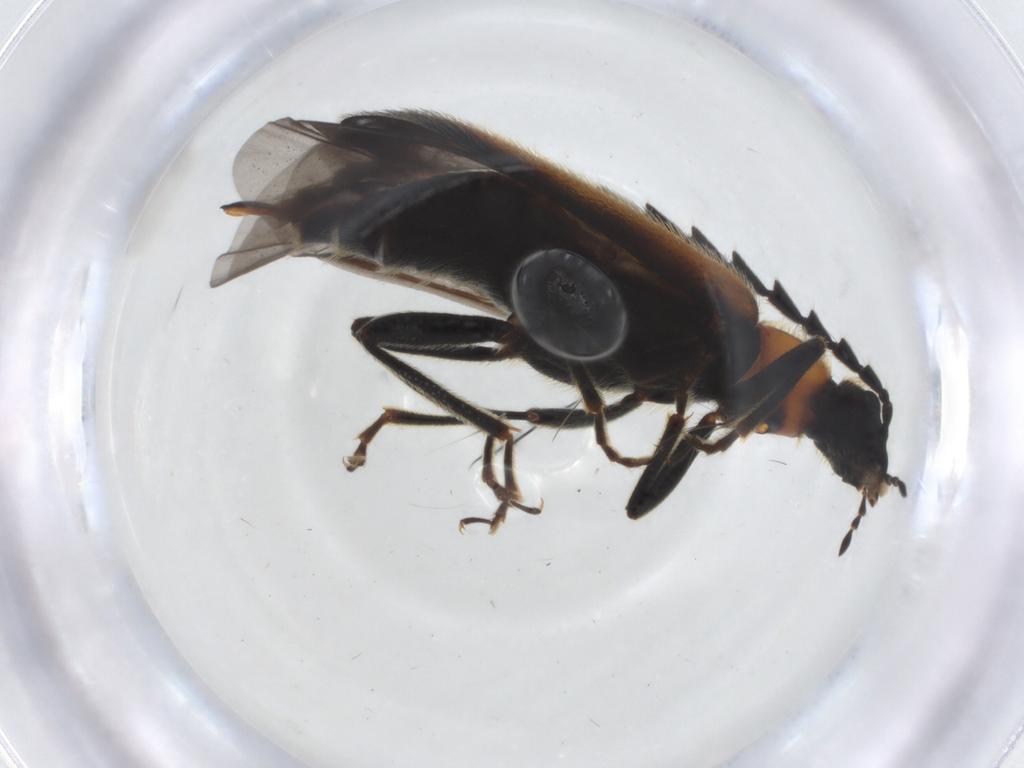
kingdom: Animalia
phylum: Arthropoda
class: Insecta
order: Coleoptera
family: Pyrochroidae
